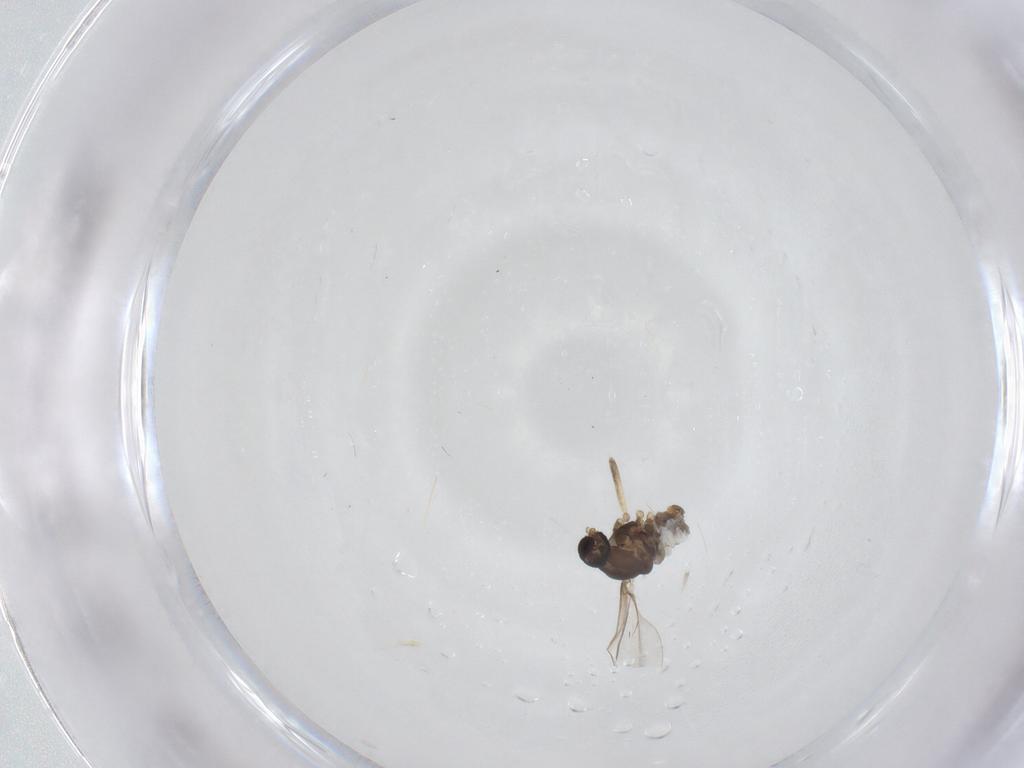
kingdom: Animalia
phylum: Arthropoda
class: Insecta
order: Diptera
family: Cecidomyiidae
